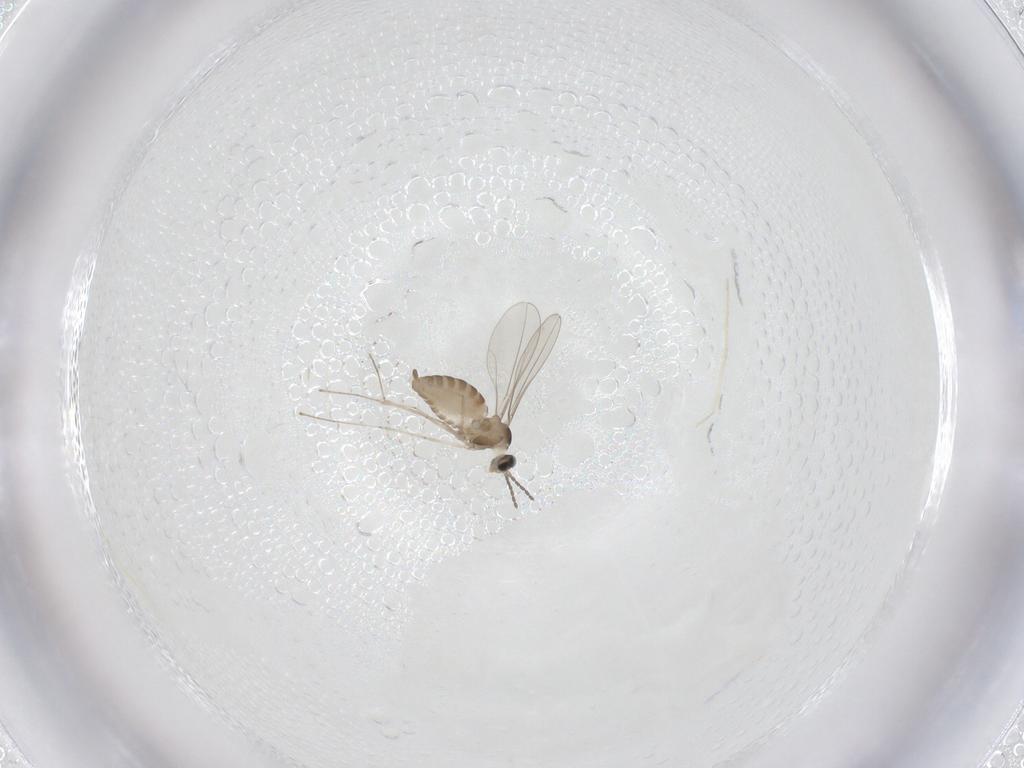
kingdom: Animalia
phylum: Arthropoda
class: Insecta
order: Diptera
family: Cecidomyiidae
